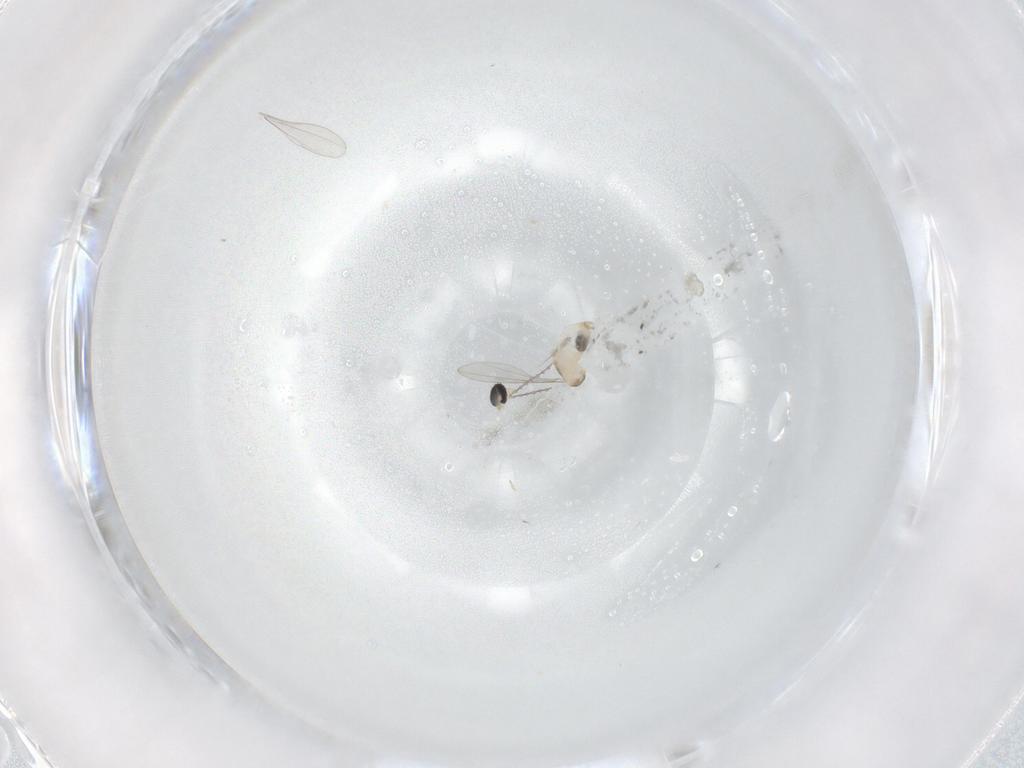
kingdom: Animalia
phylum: Arthropoda
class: Insecta
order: Diptera
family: Cecidomyiidae
